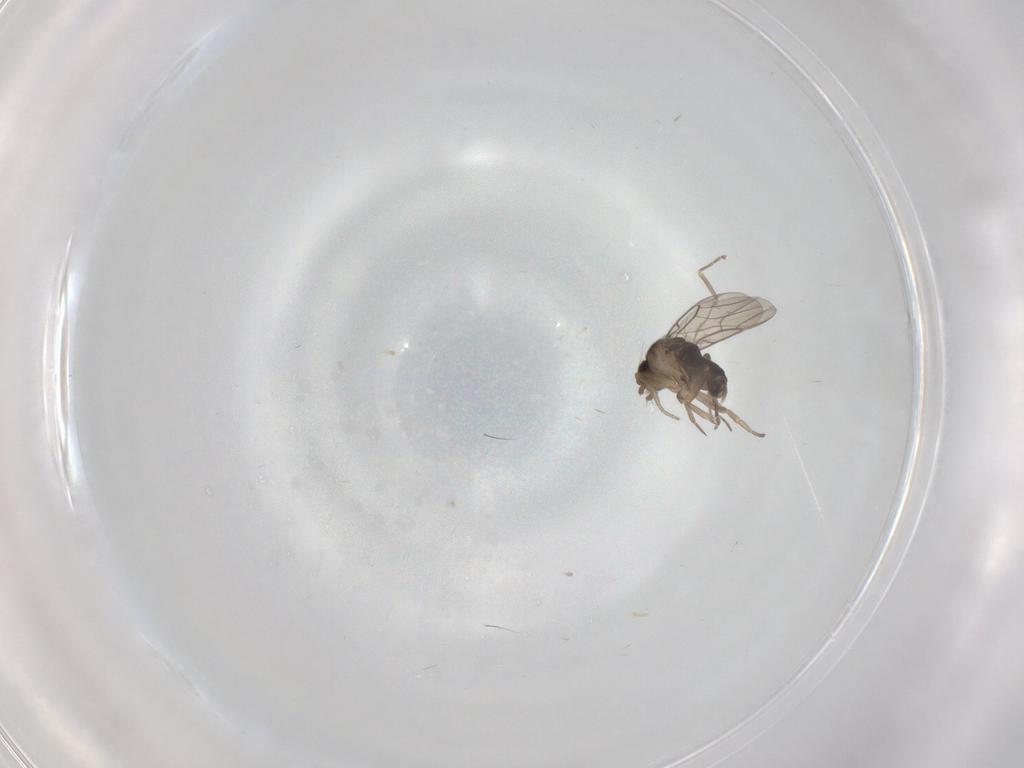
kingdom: Animalia
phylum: Arthropoda
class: Insecta
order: Diptera
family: Phoridae
